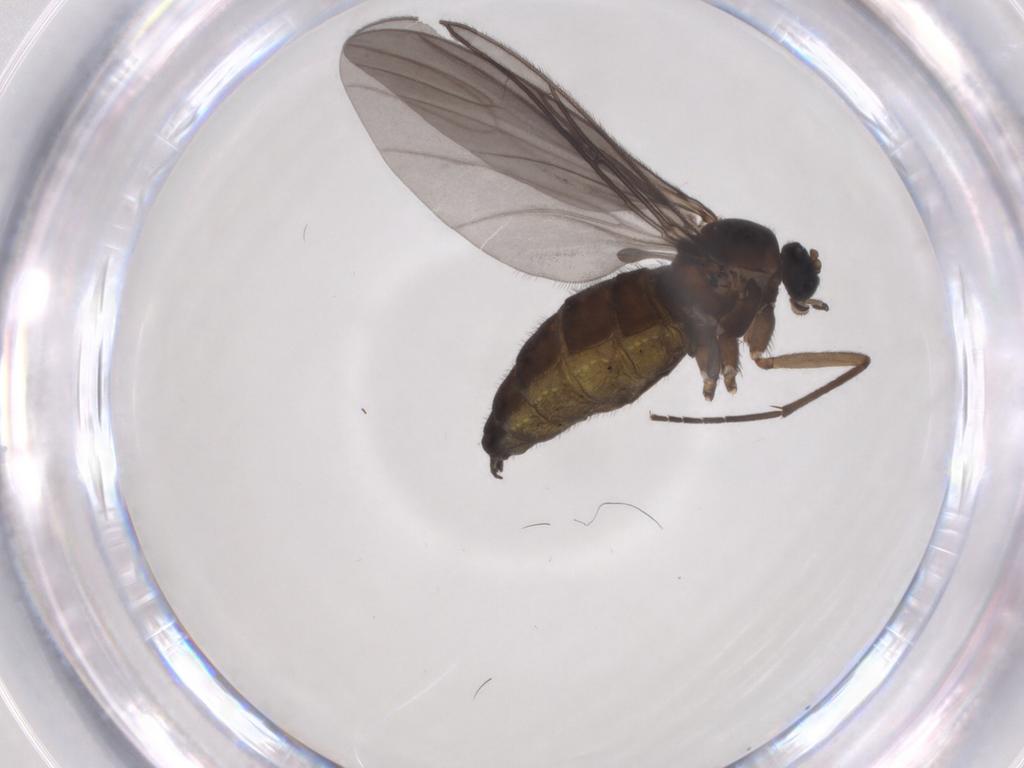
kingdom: Animalia
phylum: Arthropoda
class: Insecta
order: Diptera
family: Sciaridae
